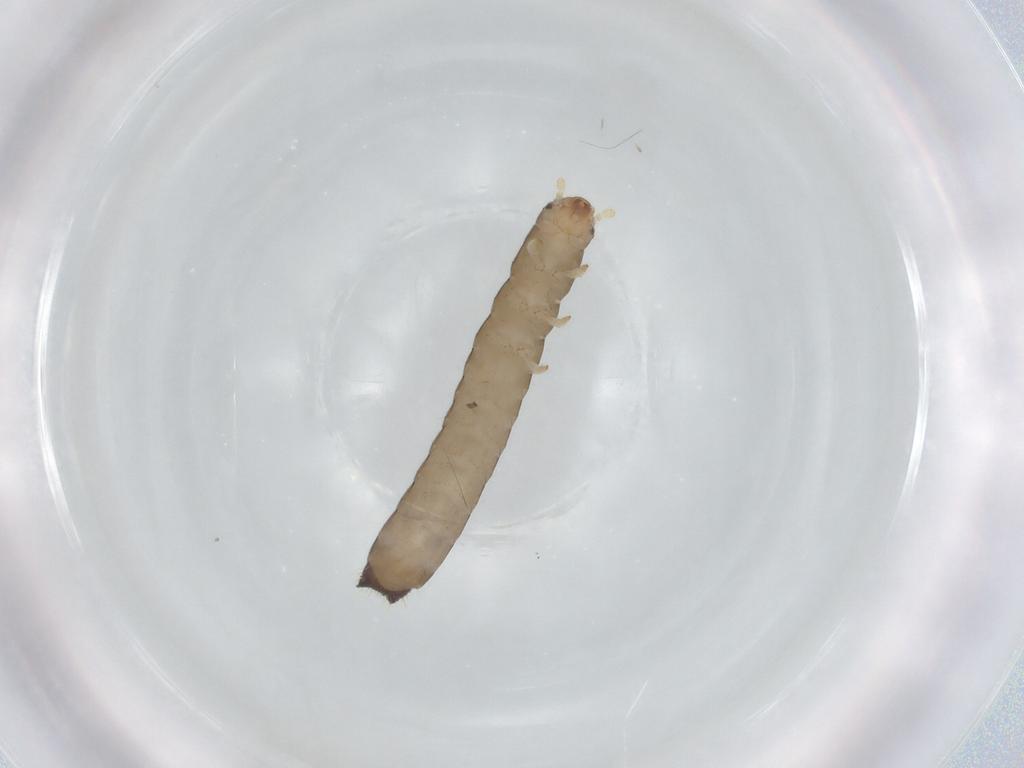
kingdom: Animalia
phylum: Arthropoda
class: Insecta
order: Coleoptera
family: Tenebrionidae
